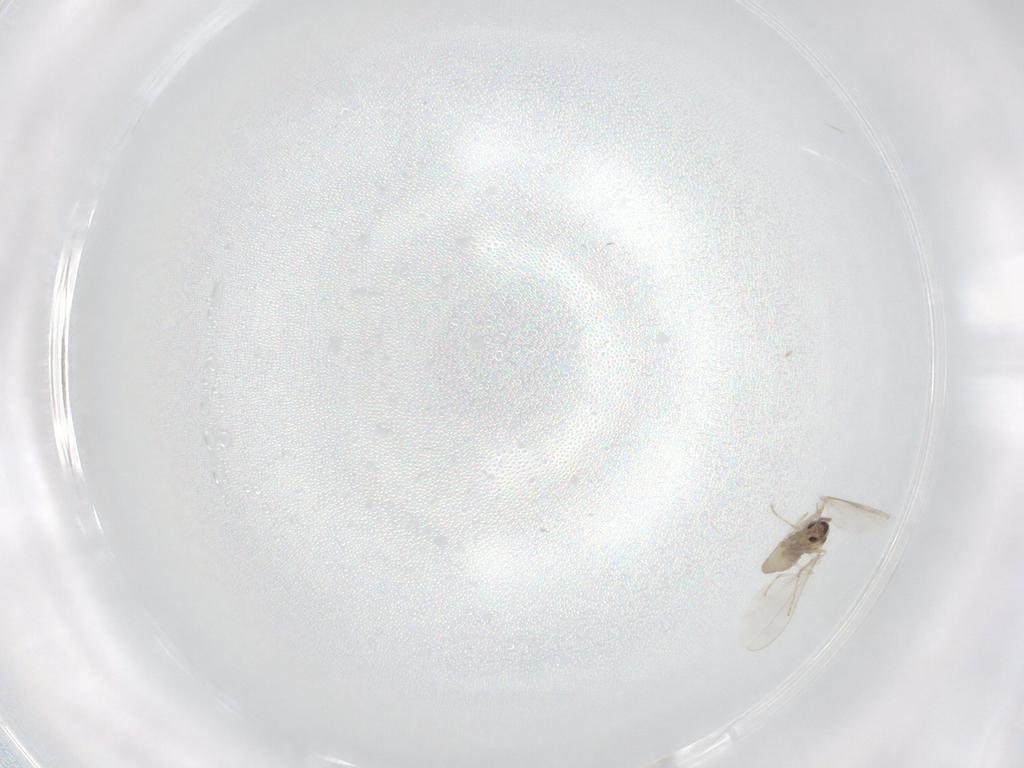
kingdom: Animalia
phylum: Arthropoda
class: Insecta
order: Diptera
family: Cecidomyiidae
